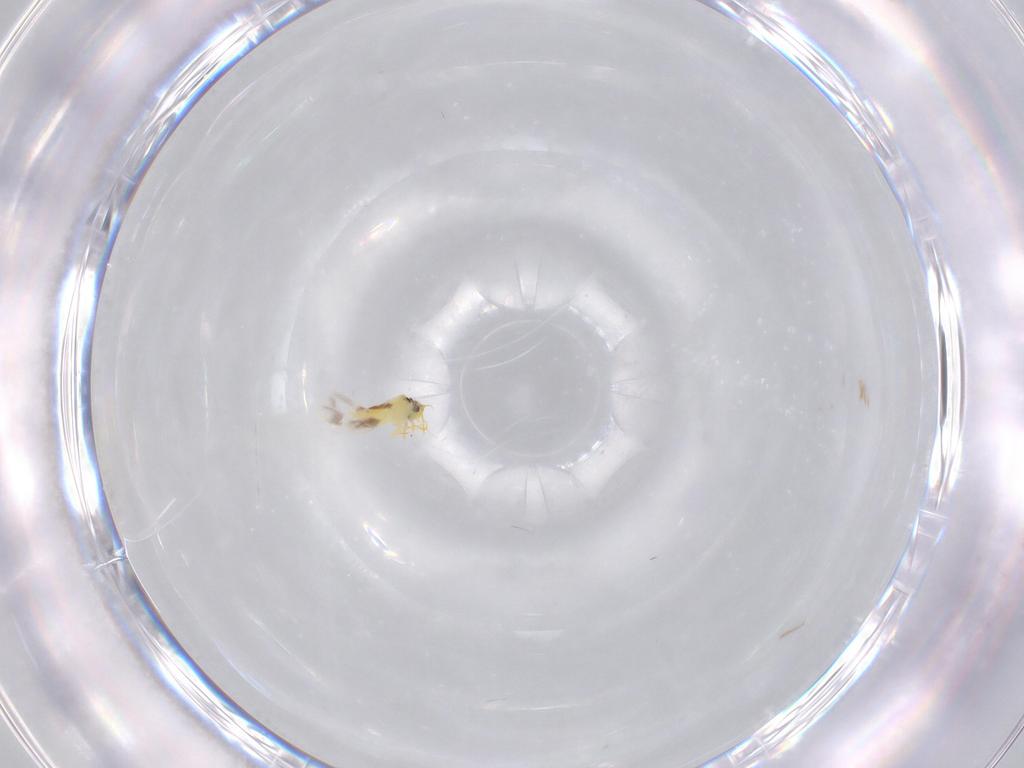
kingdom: Animalia
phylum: Arthropoda
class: Insecta
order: Hemiptera
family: Aleyrodidae
